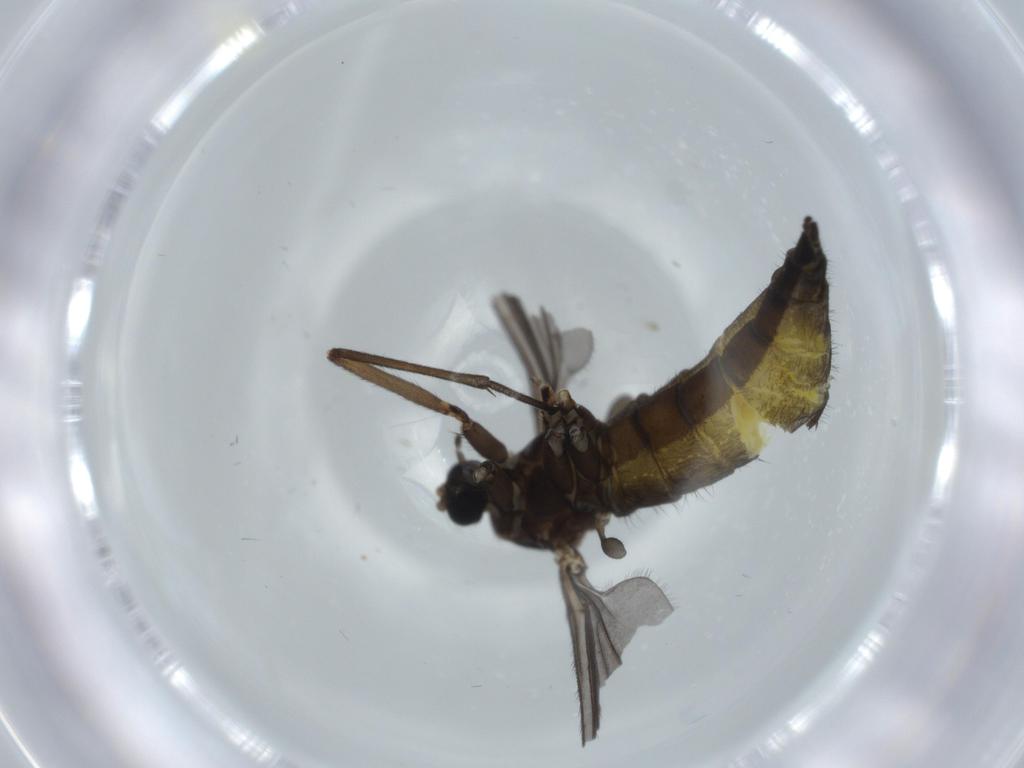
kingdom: Animalia
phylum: Arthropoda
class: Insecta
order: Diptera
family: Sciaridae
